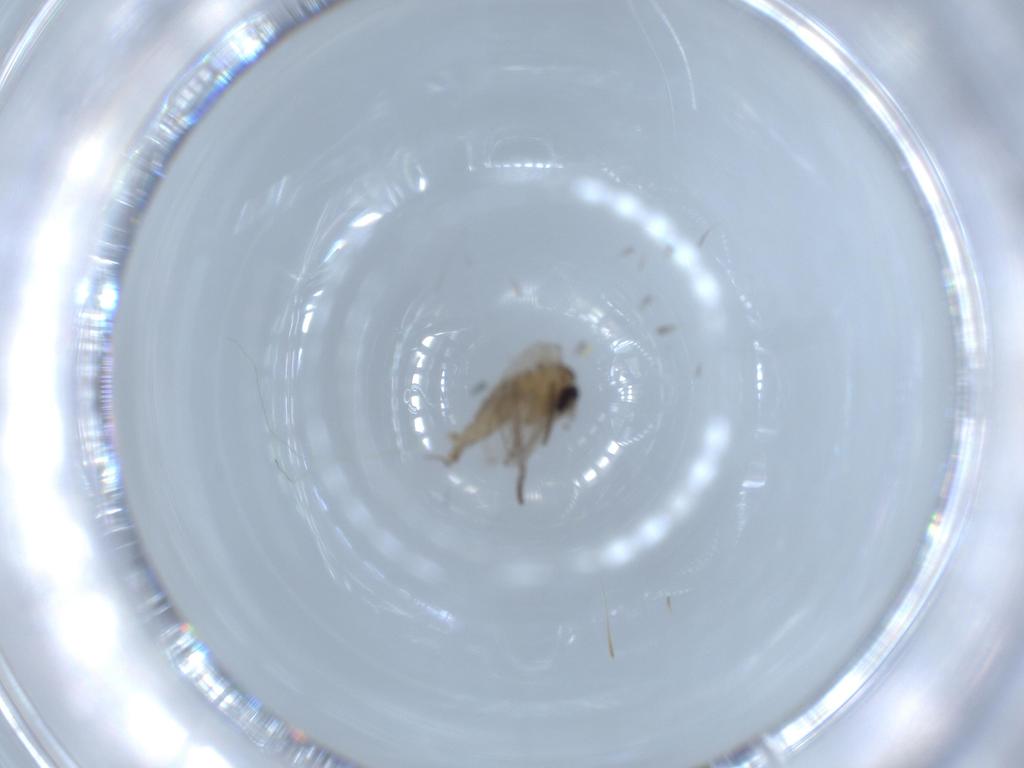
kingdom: Animalia
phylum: Arthropoda
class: Insecta
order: Diptera
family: Psychodidae
